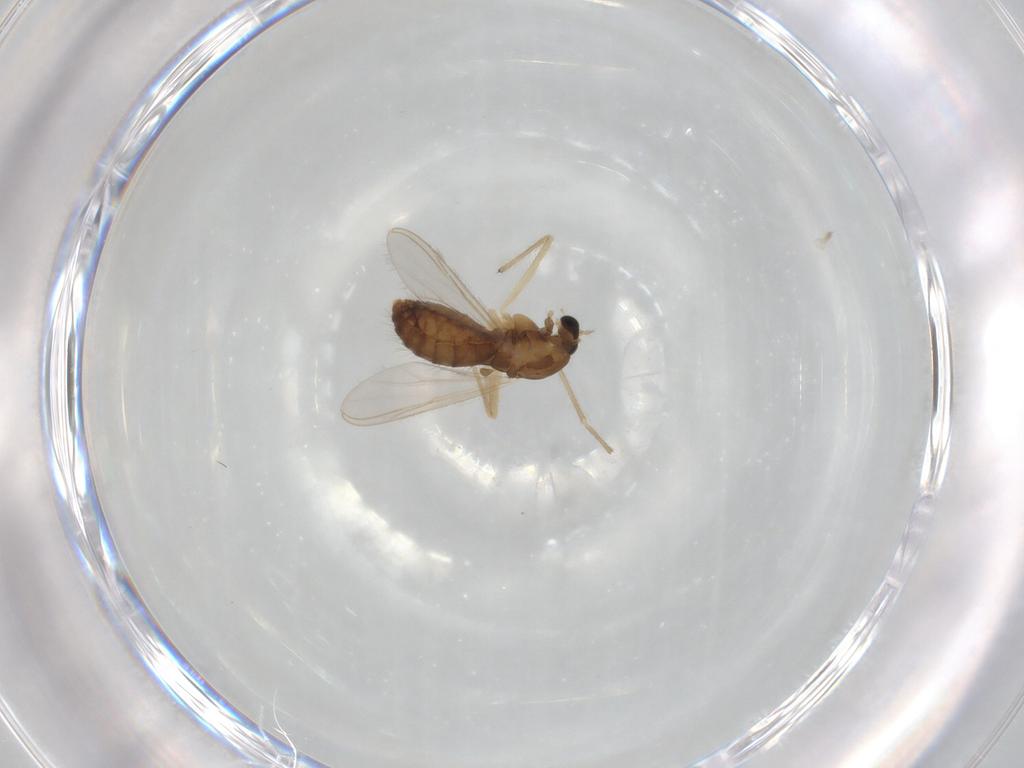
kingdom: Animalia
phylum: Arthropoda
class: Insecta
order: Diptera
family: Chironomidae
